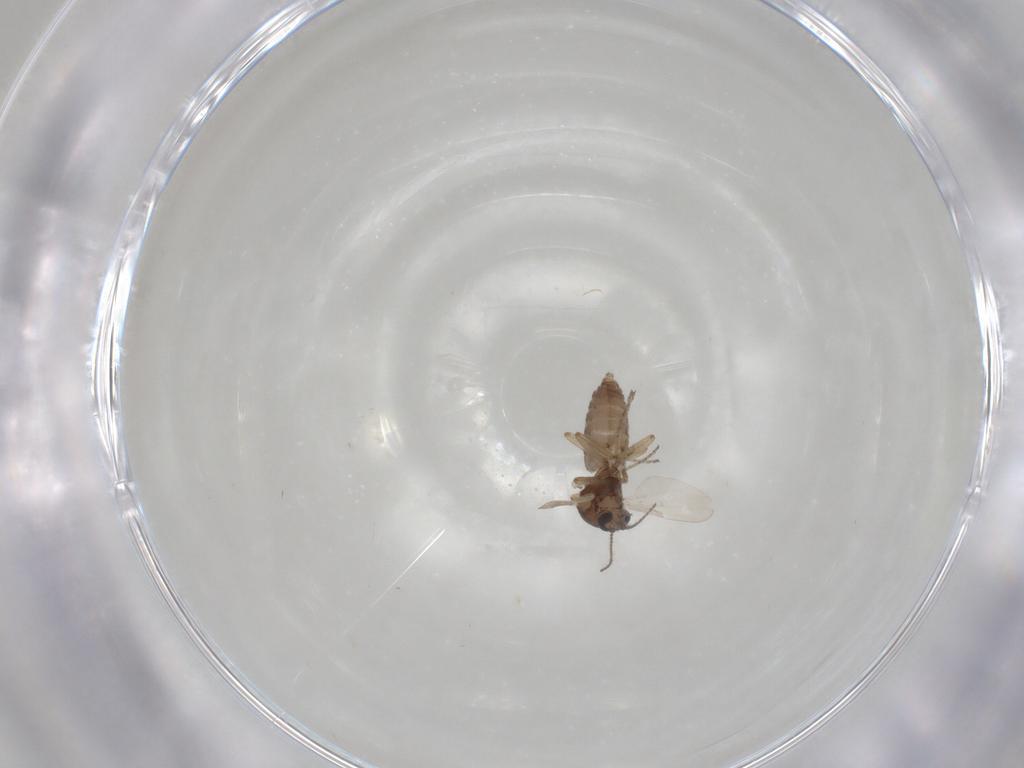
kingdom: Animalia
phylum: Arthropoda
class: Insecta
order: Diptera
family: Ceratopogonidae
